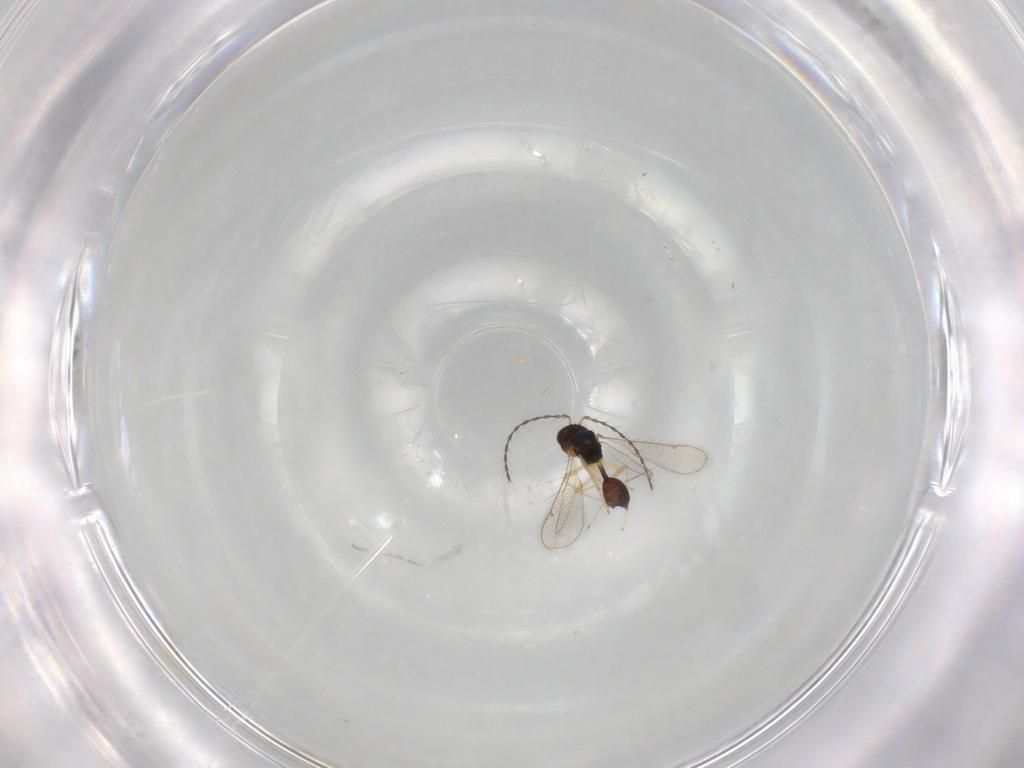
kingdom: Animalia
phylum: Arthropoda
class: Insecta
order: Hymenoptera
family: Diparidae
